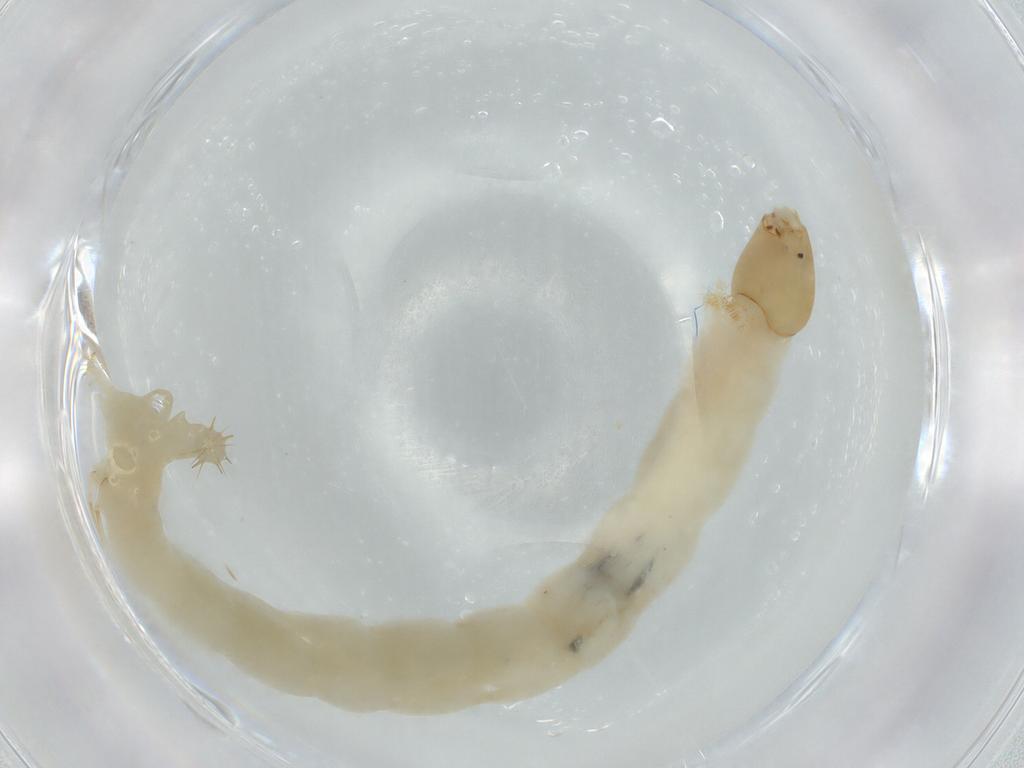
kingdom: Animalia
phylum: Arthropoda
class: Insecta
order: Diptera
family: Chironomidae
